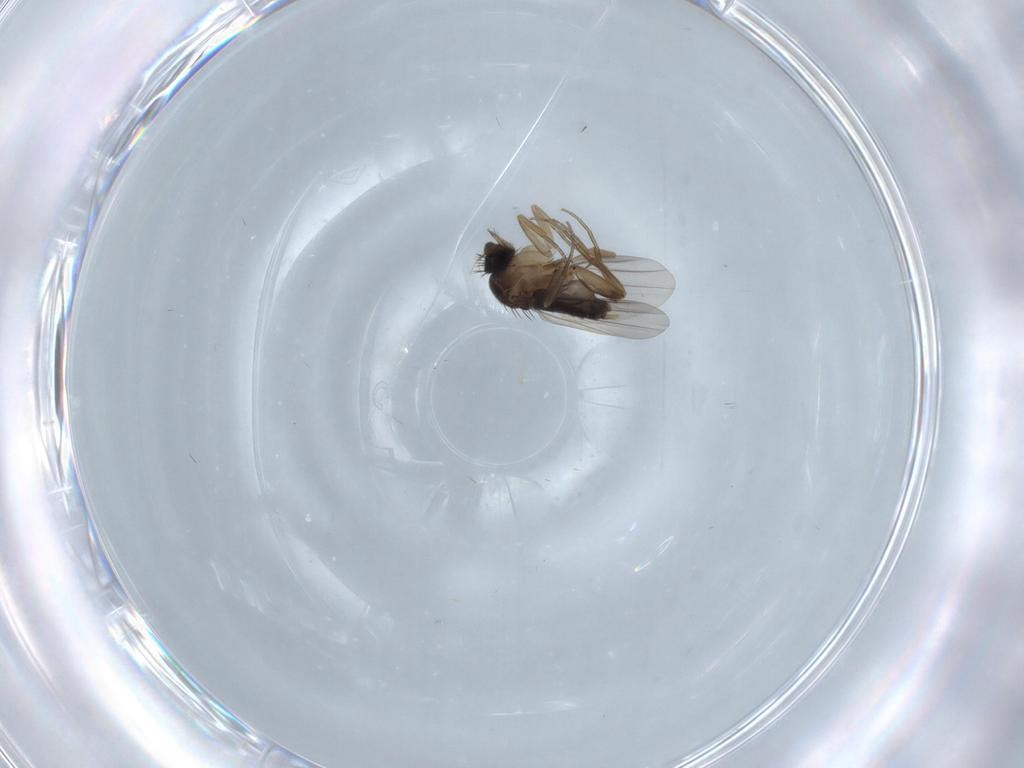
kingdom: Animalia
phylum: Arthropoda
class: Insecta
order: Diptera
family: Phoridae
